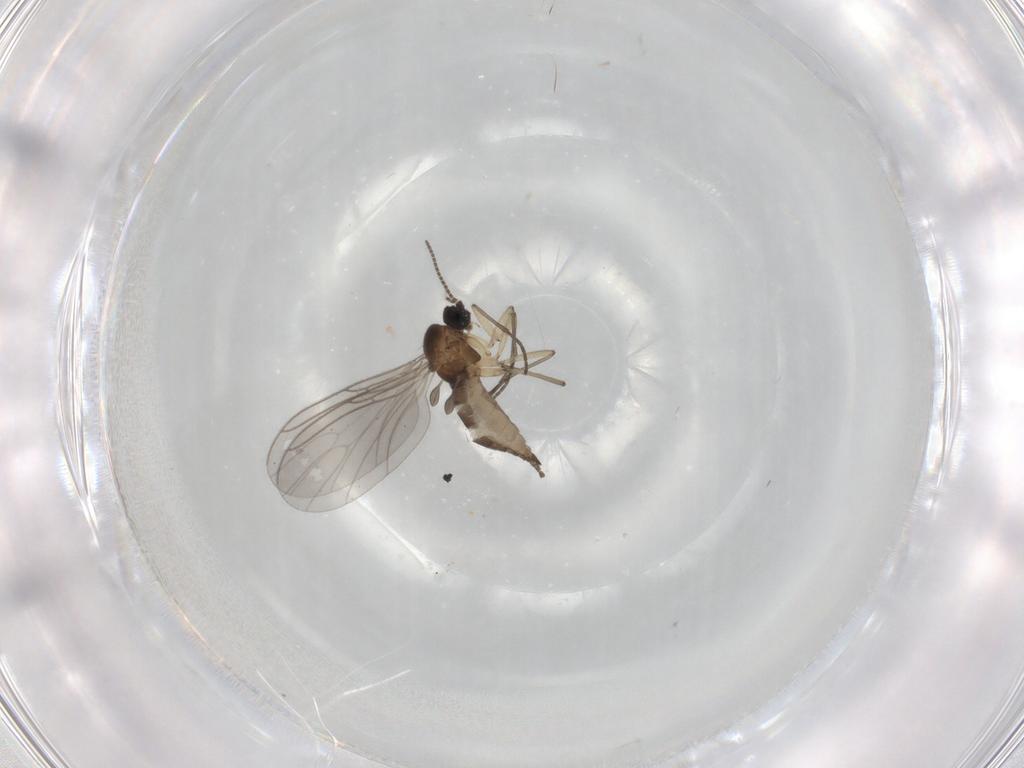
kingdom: Animalia
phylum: Arthropoda
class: Insecta
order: Diptera
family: Sciaridae
